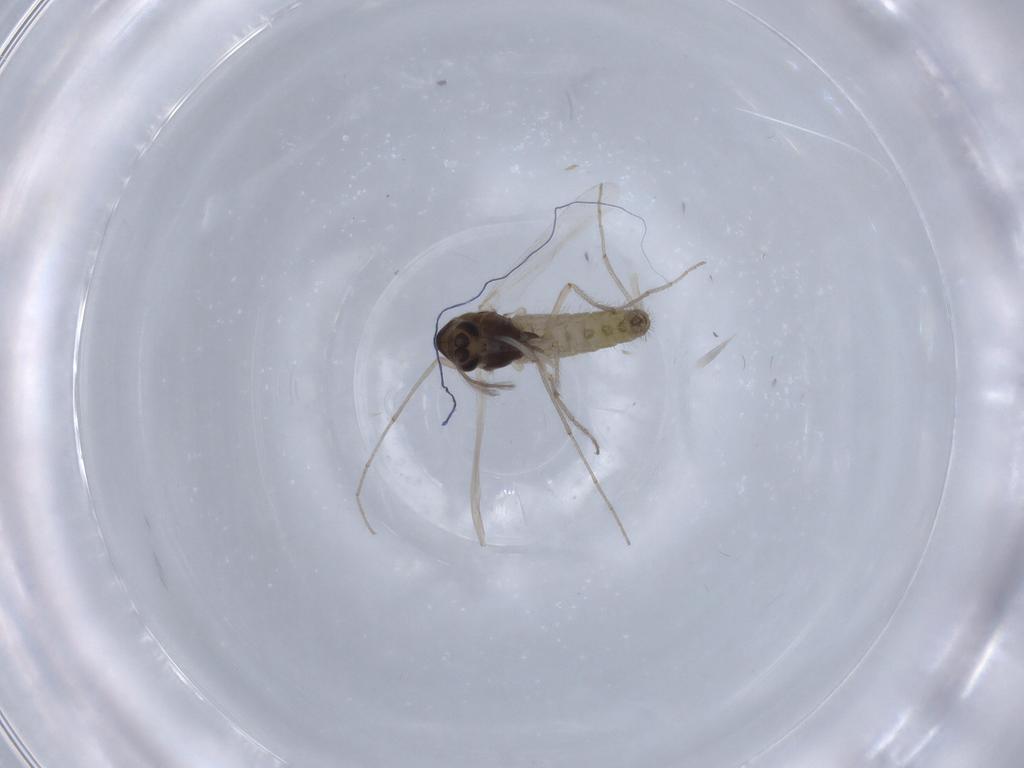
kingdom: Animalia
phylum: Arthropoda
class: Insecta
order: Diptera
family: Chironomidae
